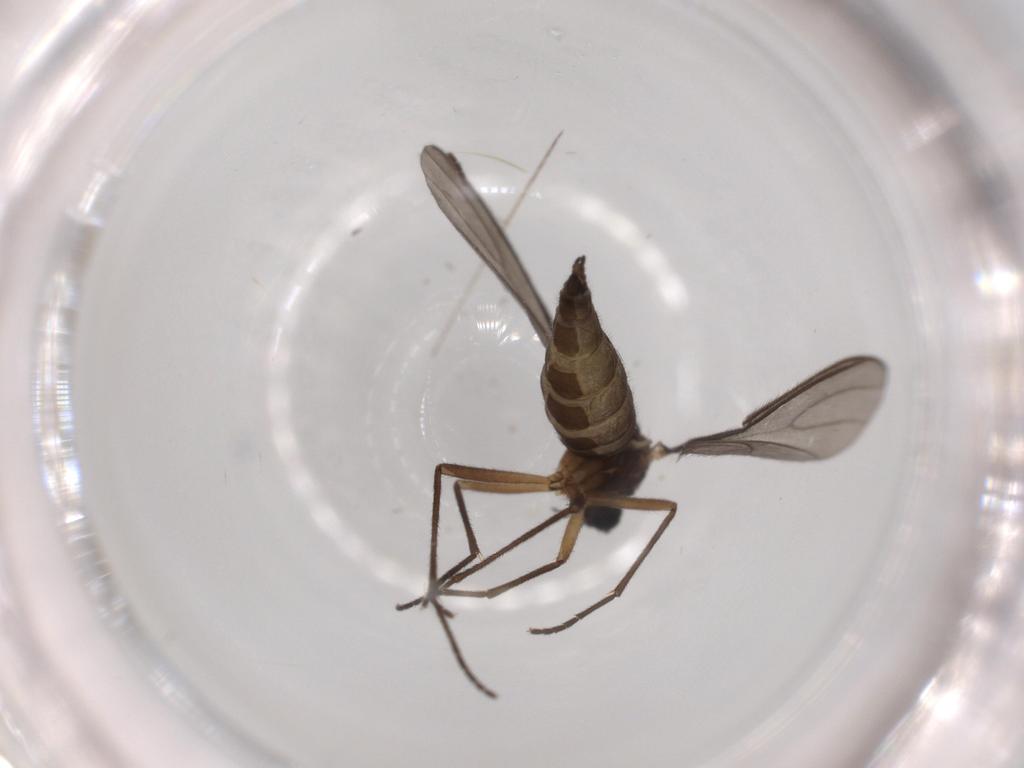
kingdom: Animalia
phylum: Arthropoda
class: Insecta
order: Diptera
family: Sciaridae
